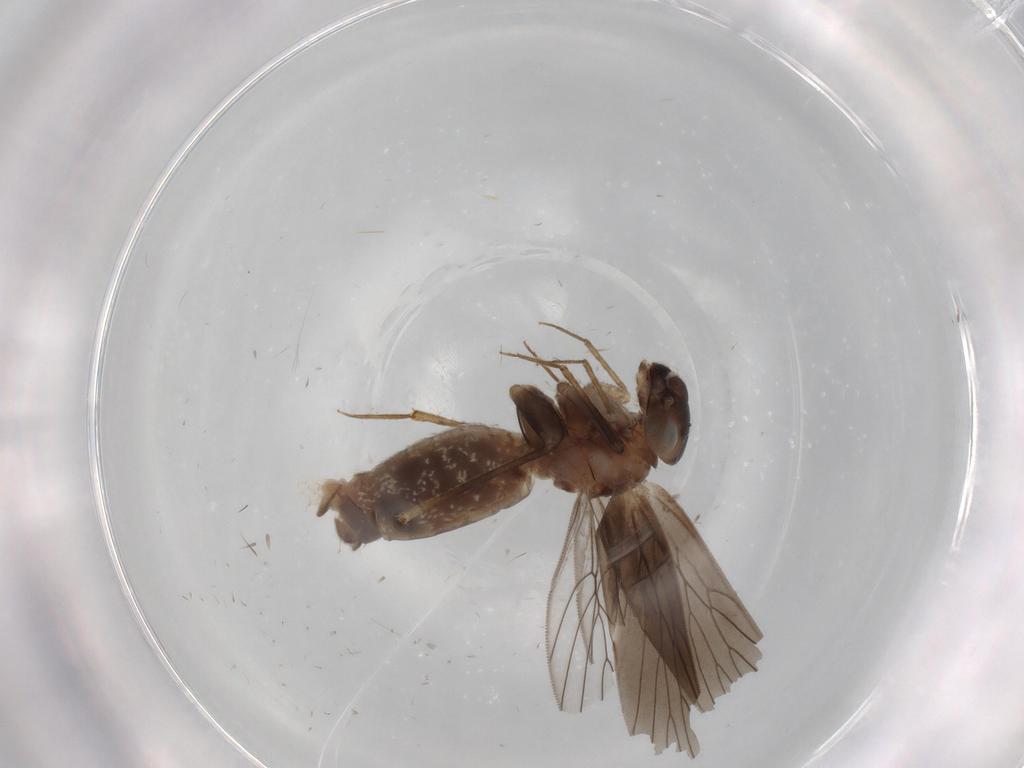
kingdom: Animalia
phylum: Arthropoda
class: Insecta
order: Psocodea
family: Lepidopsocidae
